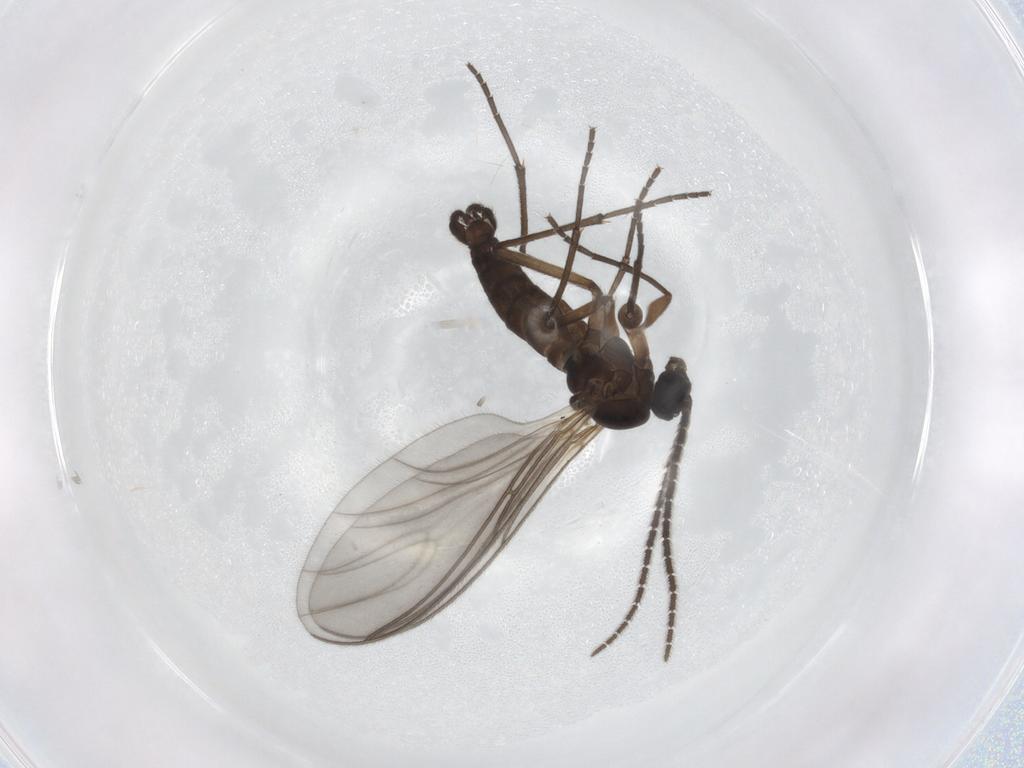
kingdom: Animalia
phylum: Arthropoda
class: Insecta
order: Diptera
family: Sciaridae
